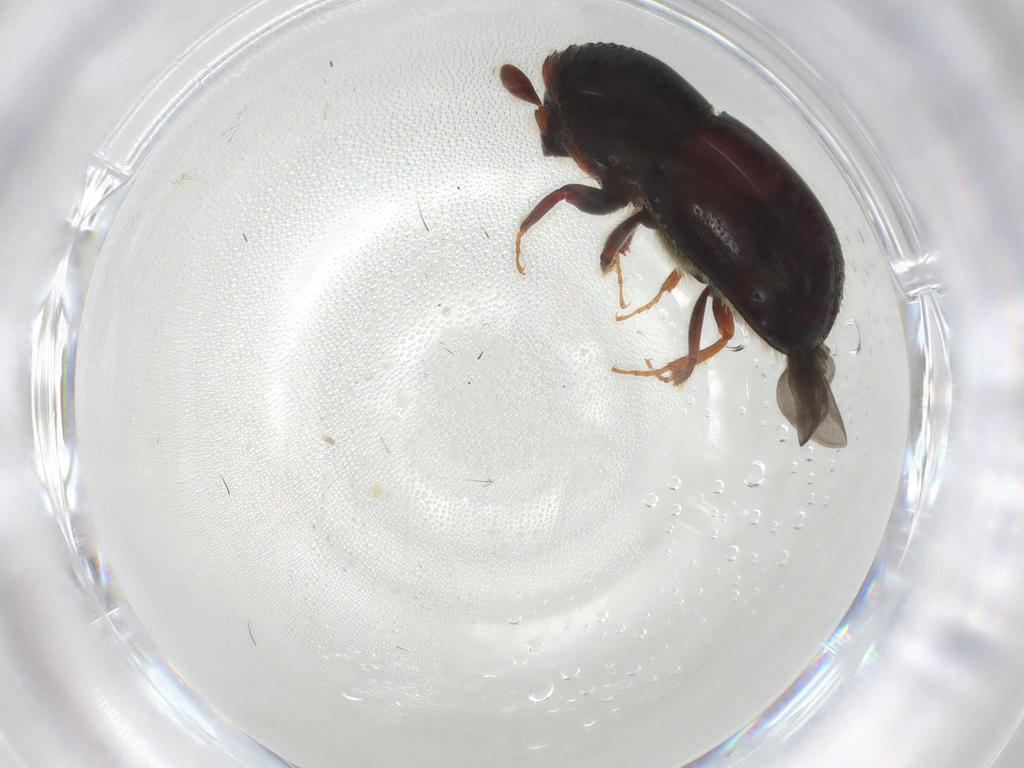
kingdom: Animalia
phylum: Arthropoda
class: Insecta
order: Coleoptera
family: Curculionidae
